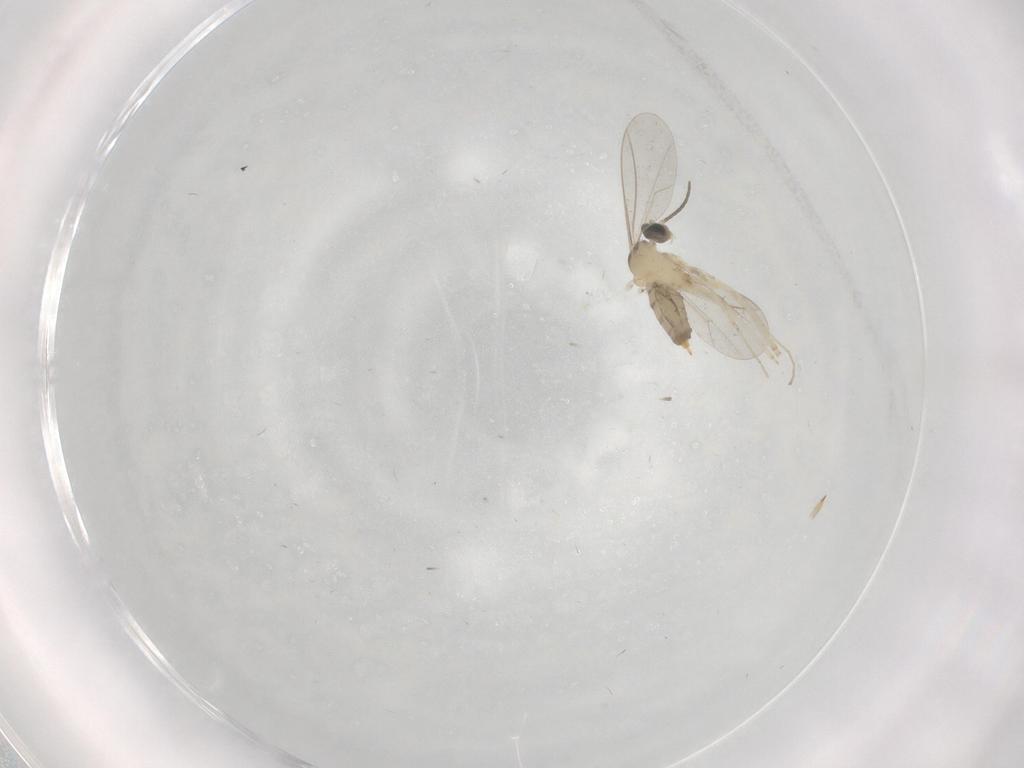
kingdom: Animalia
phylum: Arthropoda
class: Insecta
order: Diptera
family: Cecidomyiidae
